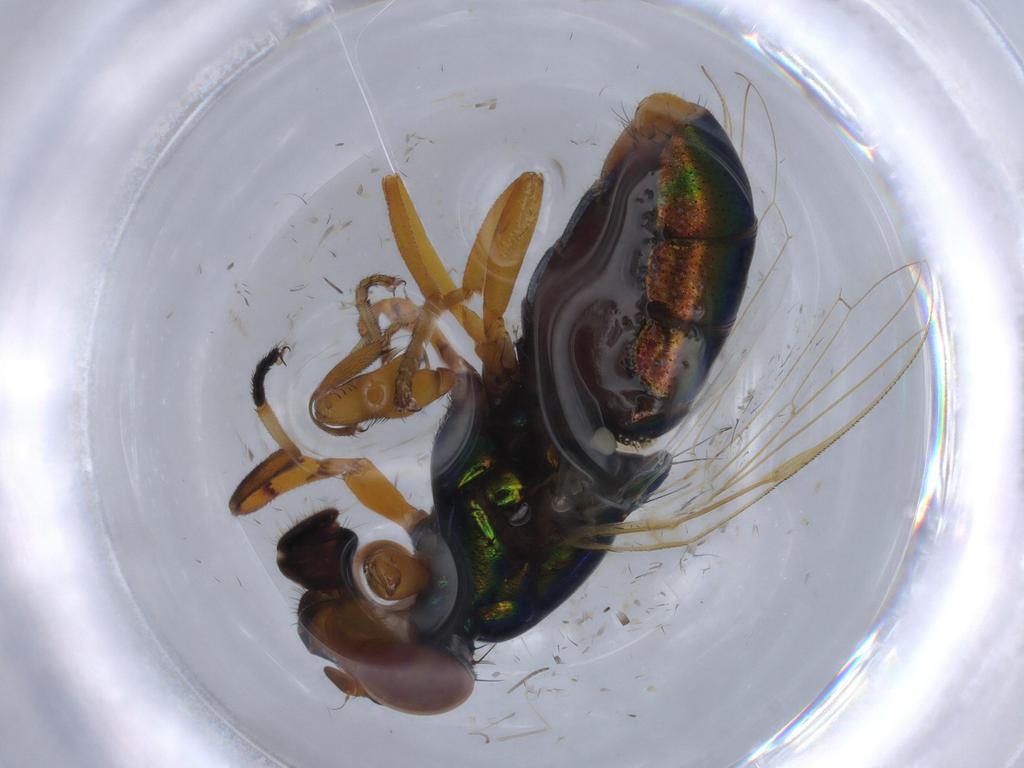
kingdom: Animalia
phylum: Arthropoda
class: Insecta
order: Diptera
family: Ulidiidae
